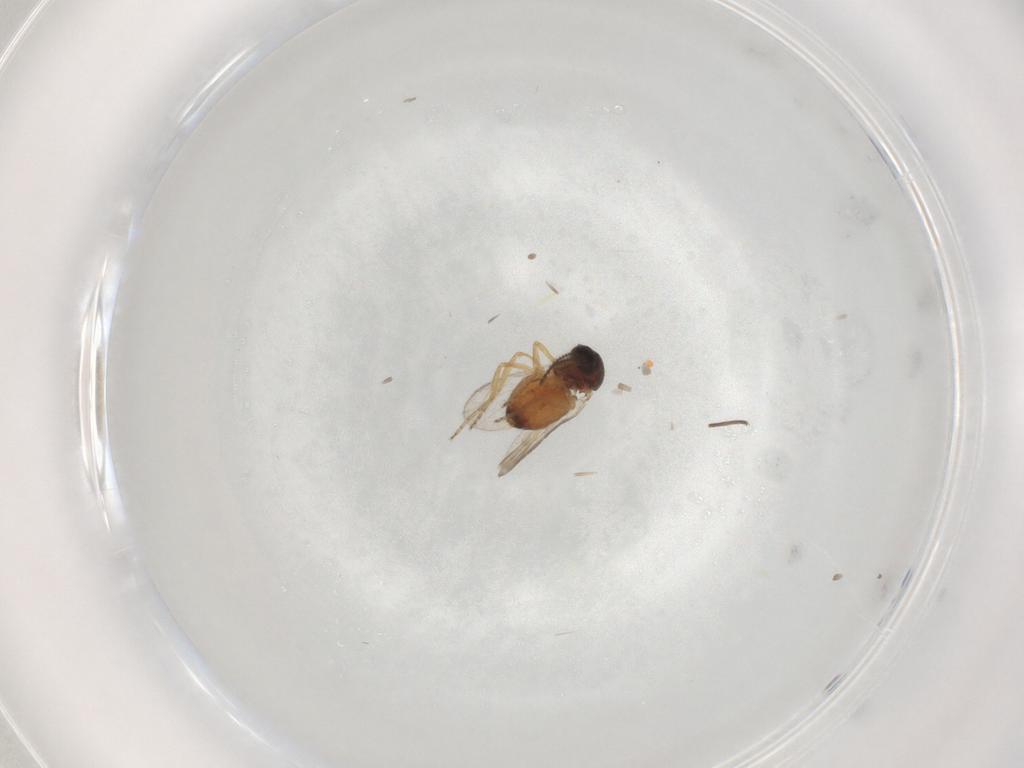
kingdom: Animalia
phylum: Arthropoda
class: Insecta
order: Diptera
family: Ceratopogonidae
